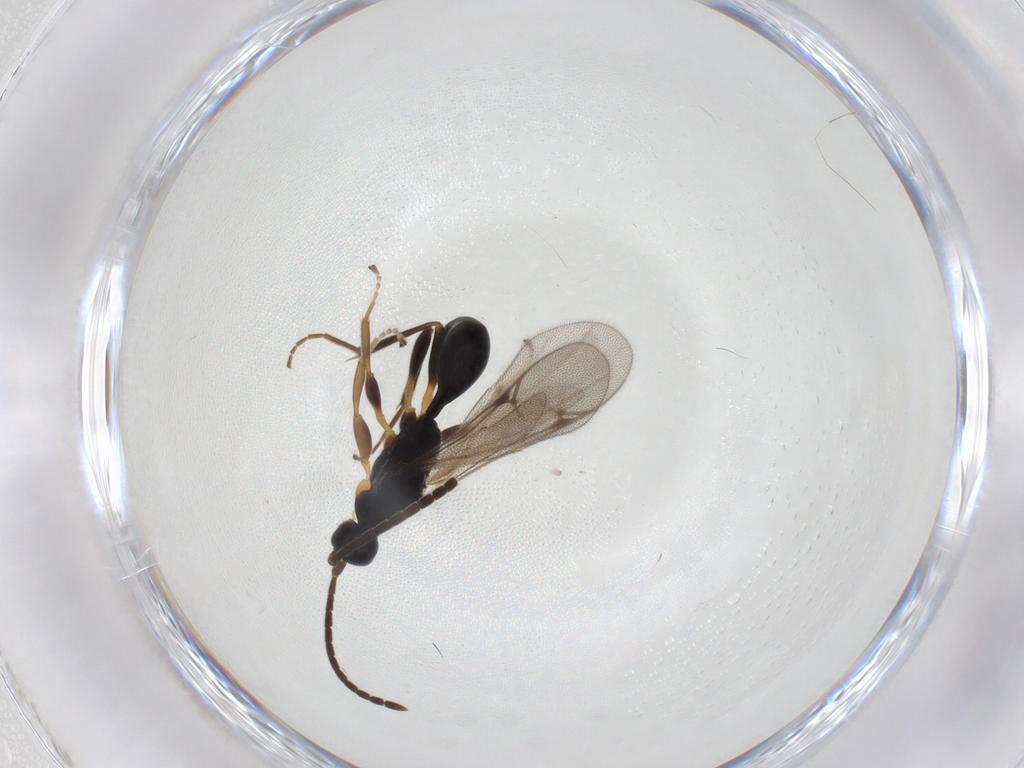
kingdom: Animalia
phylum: Arthropoda
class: Insecta
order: Hymenoptera
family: Proctotrupidae
